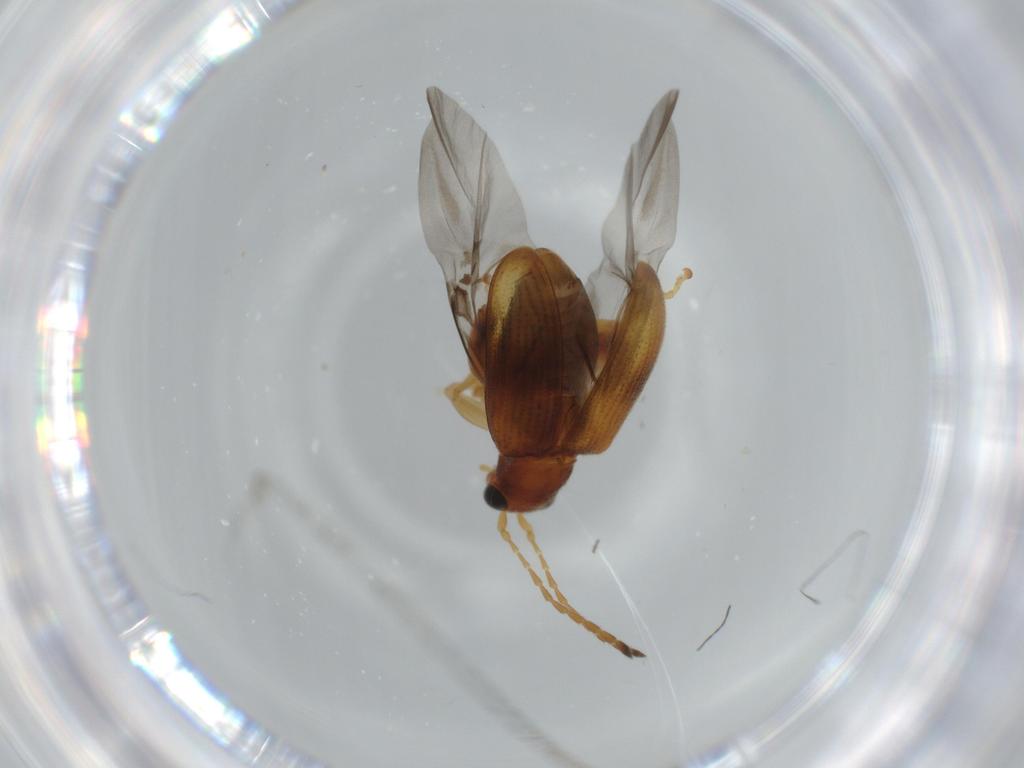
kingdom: Animalia
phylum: Arthropoda
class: Insecta
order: Coleoptera
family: Chrysomelidae
